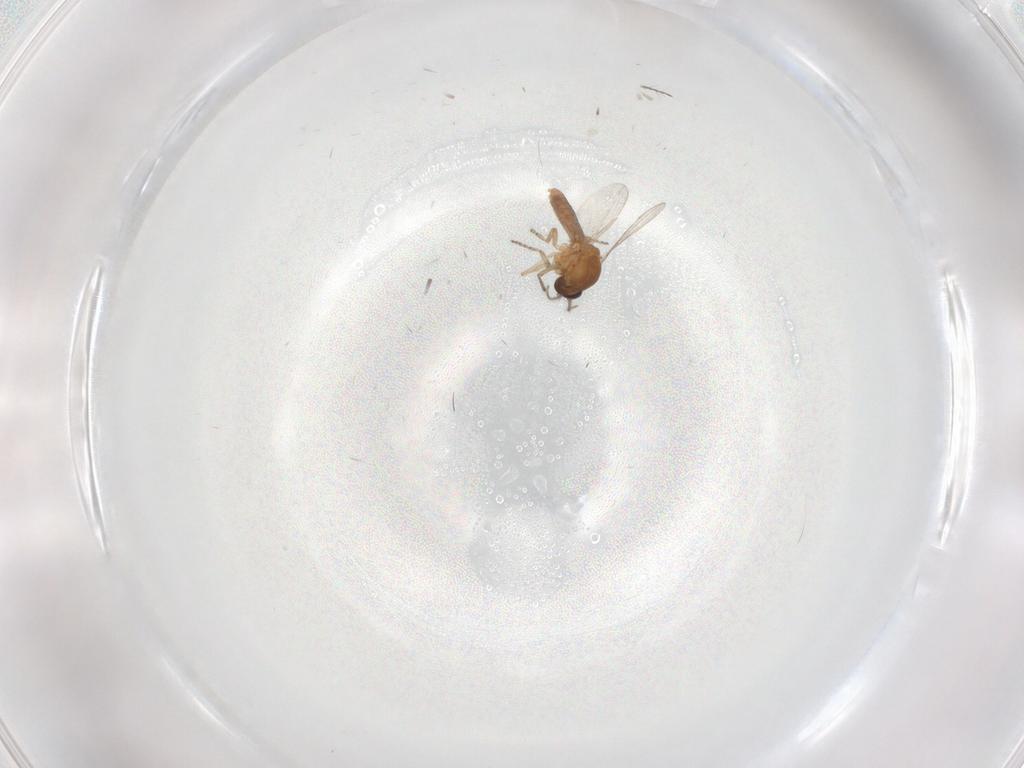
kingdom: Animalia
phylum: Arthropoda
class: Insecta
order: Diptera
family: Ceratopogonidae
